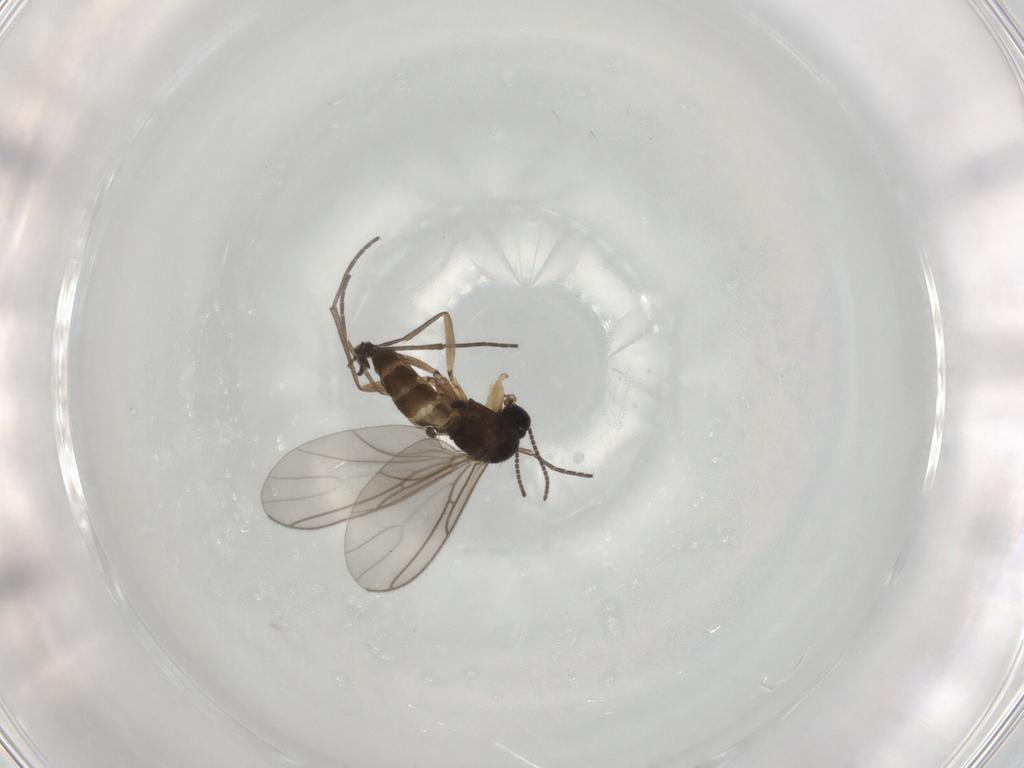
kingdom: Animalia
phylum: Arthropoda
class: Insecta
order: Diptera
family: Sciaridae
